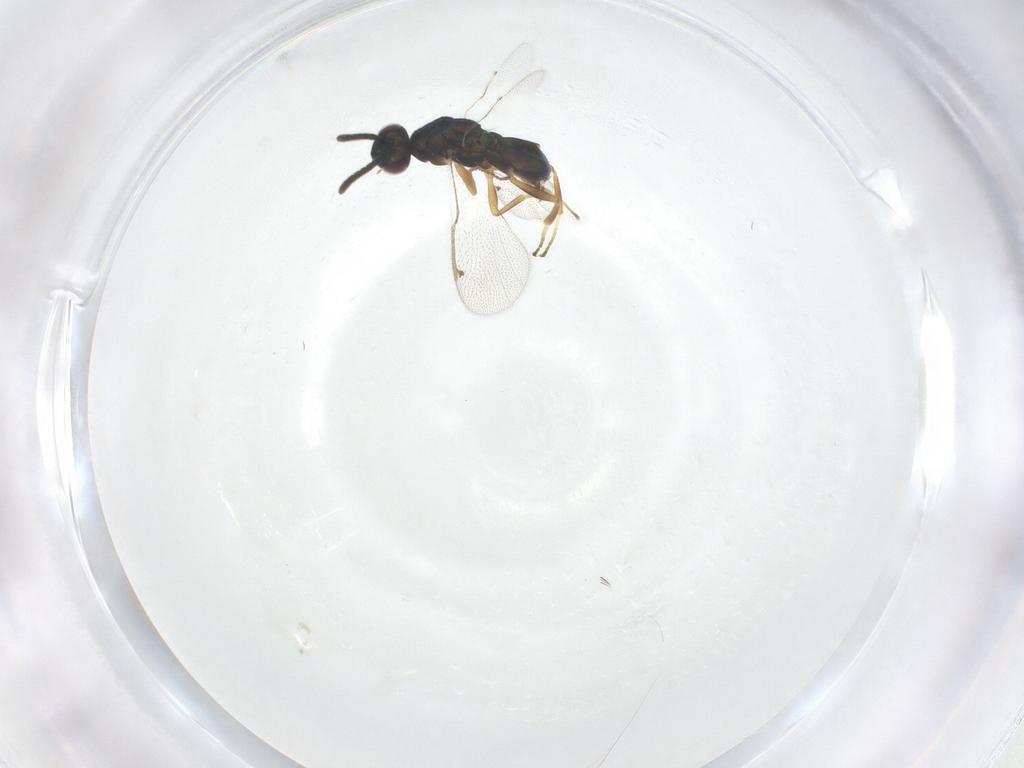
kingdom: Animalia
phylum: Arthropoda
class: Insecta
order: Hymenoptera
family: Torymidae
